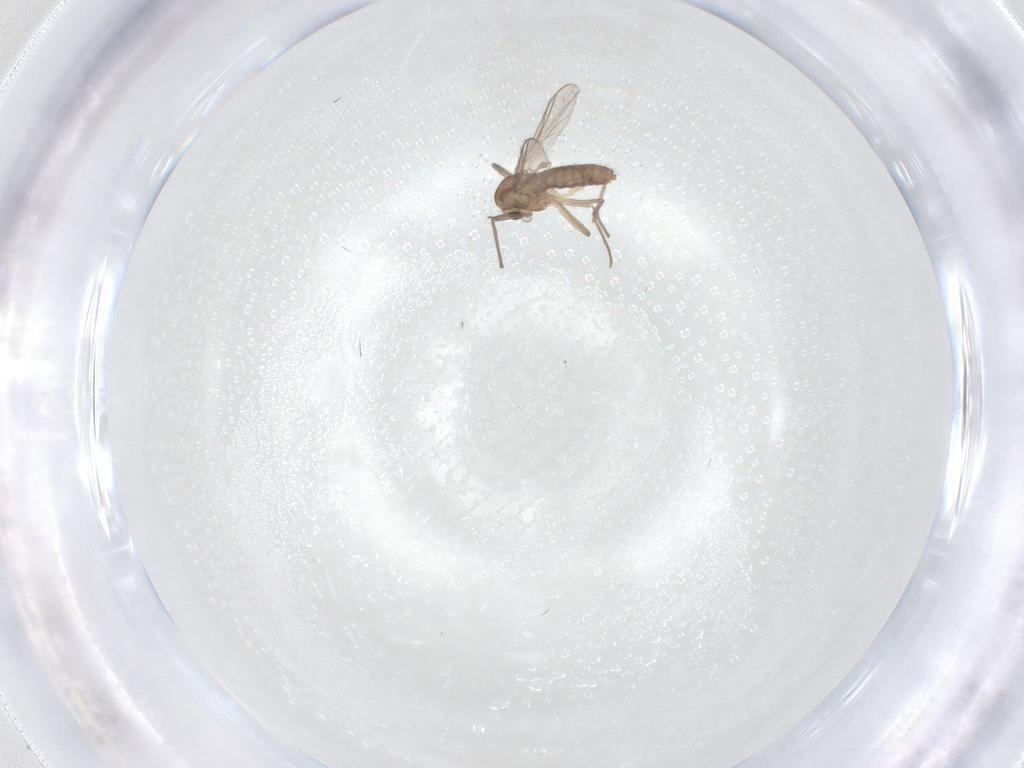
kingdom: Animalia
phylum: Arthropoda
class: Insecta
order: Diptera
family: Chironomidae
